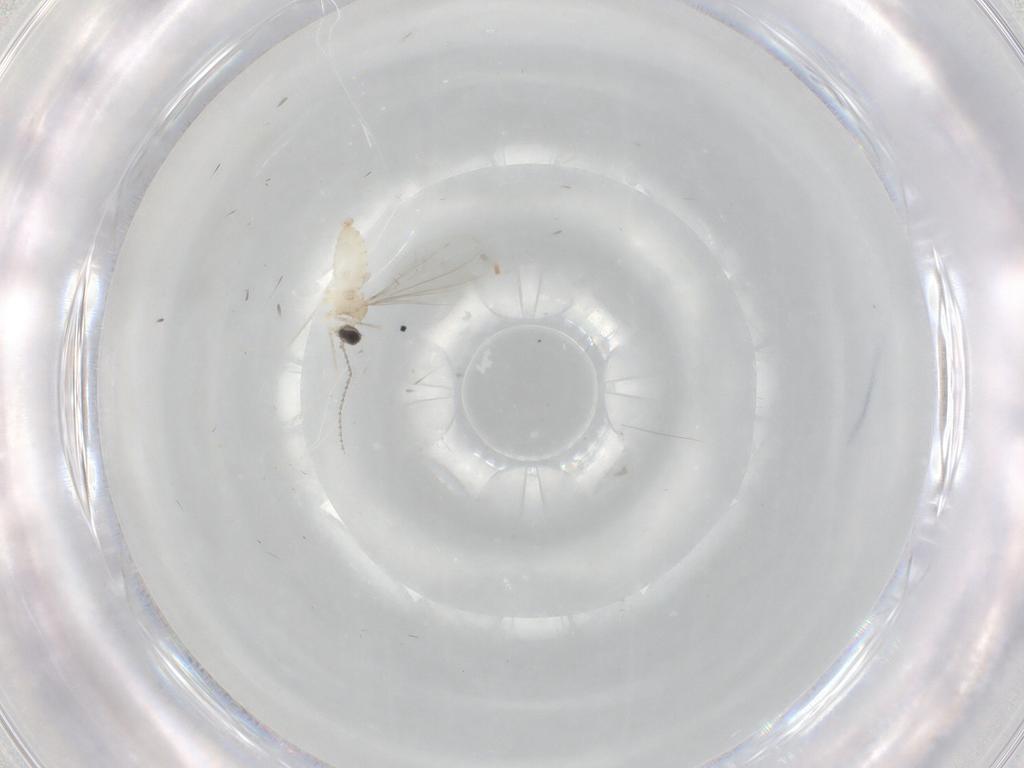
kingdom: Animalia
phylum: Arthropoda
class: Insecta
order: Diptera
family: Cecidomyiidae
